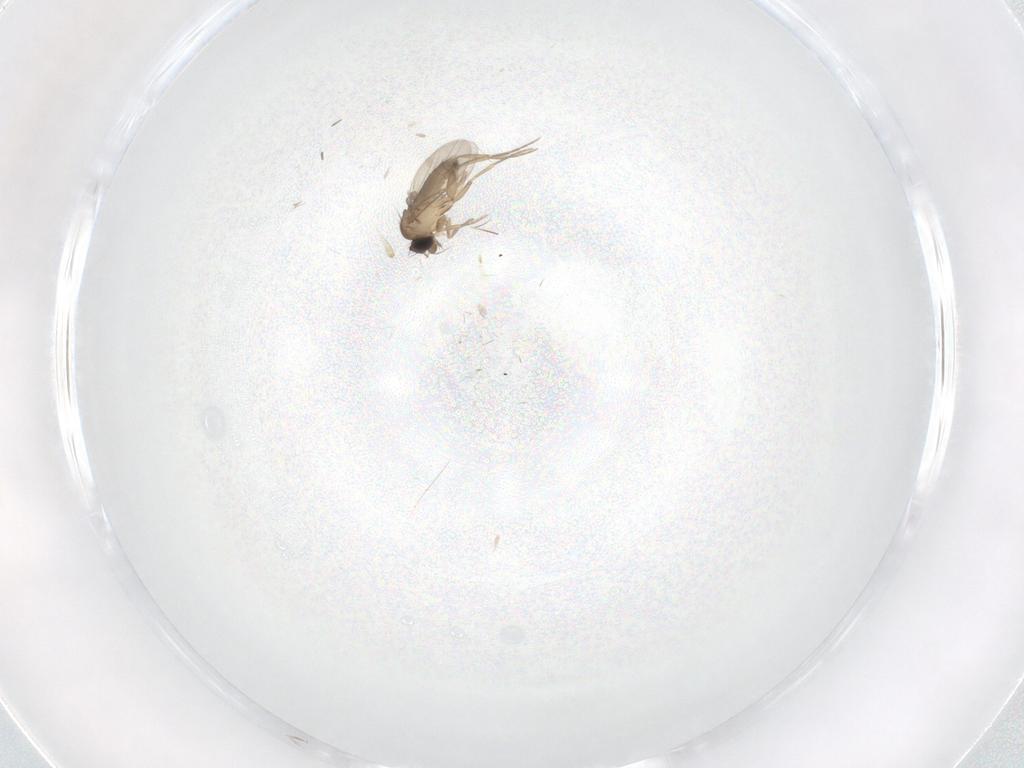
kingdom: Animalia
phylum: Arthropoda
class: Insecta
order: Diptera
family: Phoridae
